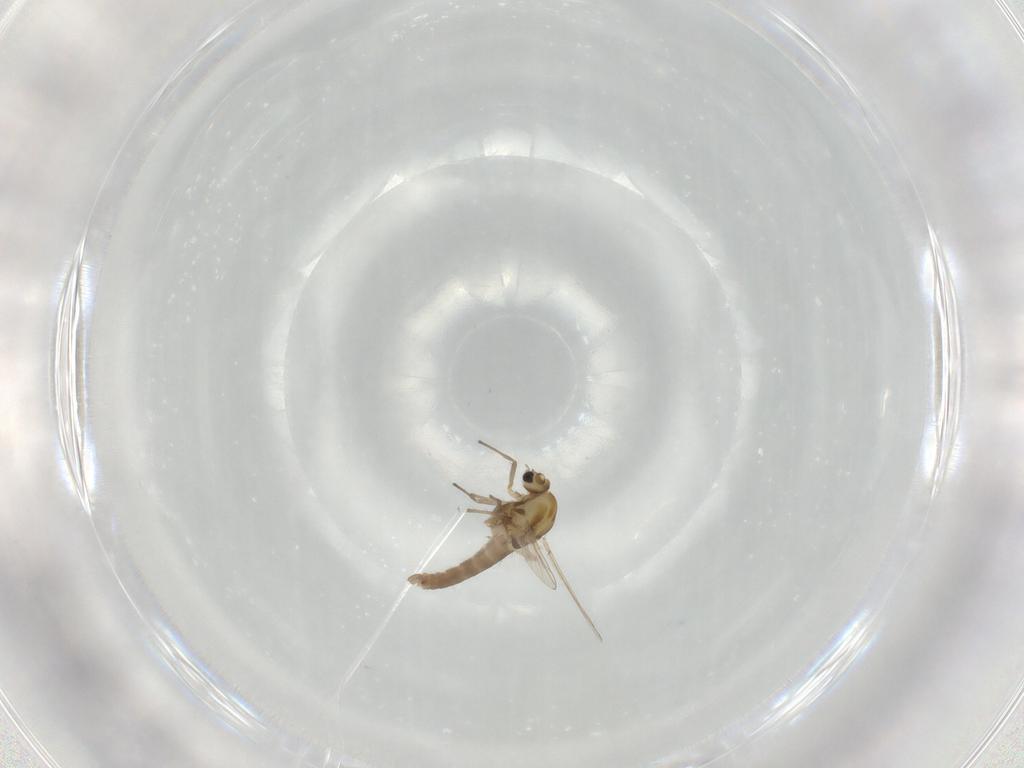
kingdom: Animalia
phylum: Arthropoda
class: Insecta
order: Diptera
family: Chironomidae
